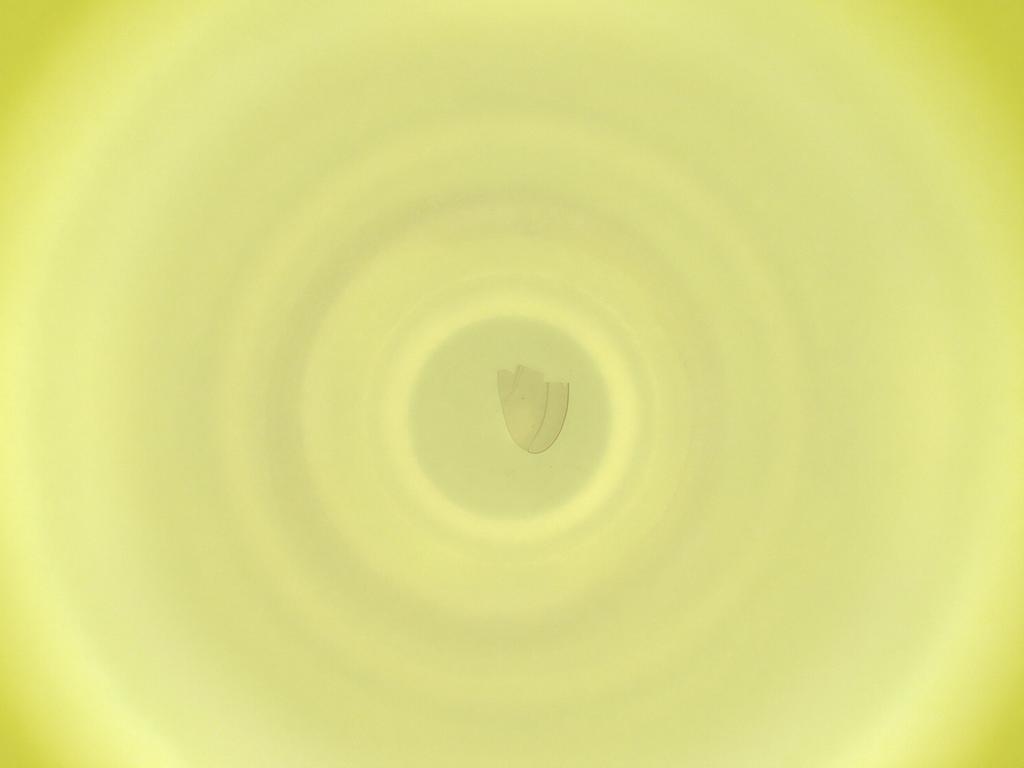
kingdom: Animalia
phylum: Arthropoda
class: Insecta
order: Diptera
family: Cecidomyiidae
